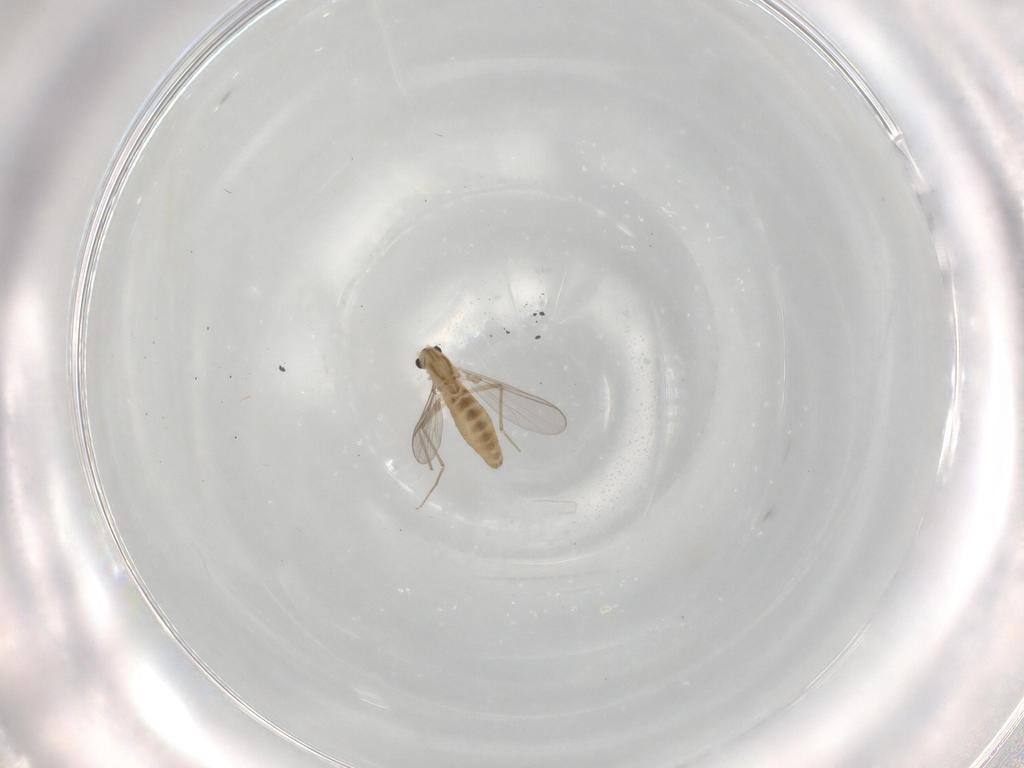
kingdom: Animalia
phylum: Arthropoda
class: Insecta
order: Diptera
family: Chironomidae
